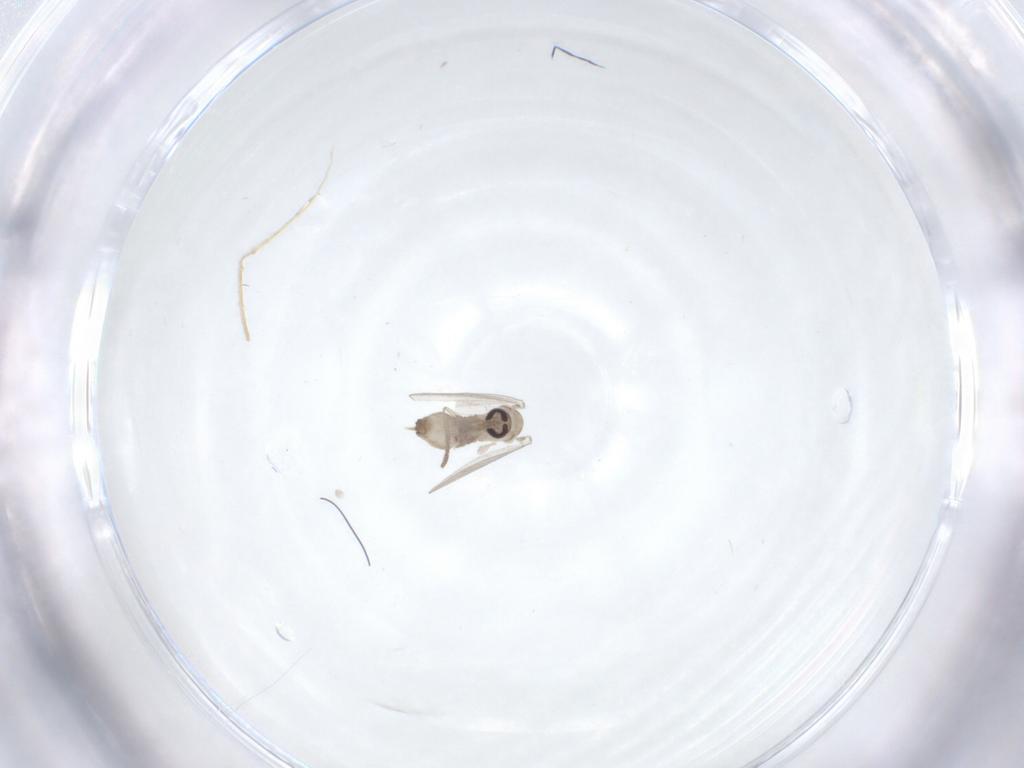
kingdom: Animalia
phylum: Arthropoda
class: Insecta
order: Diptera
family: Psychodidae
